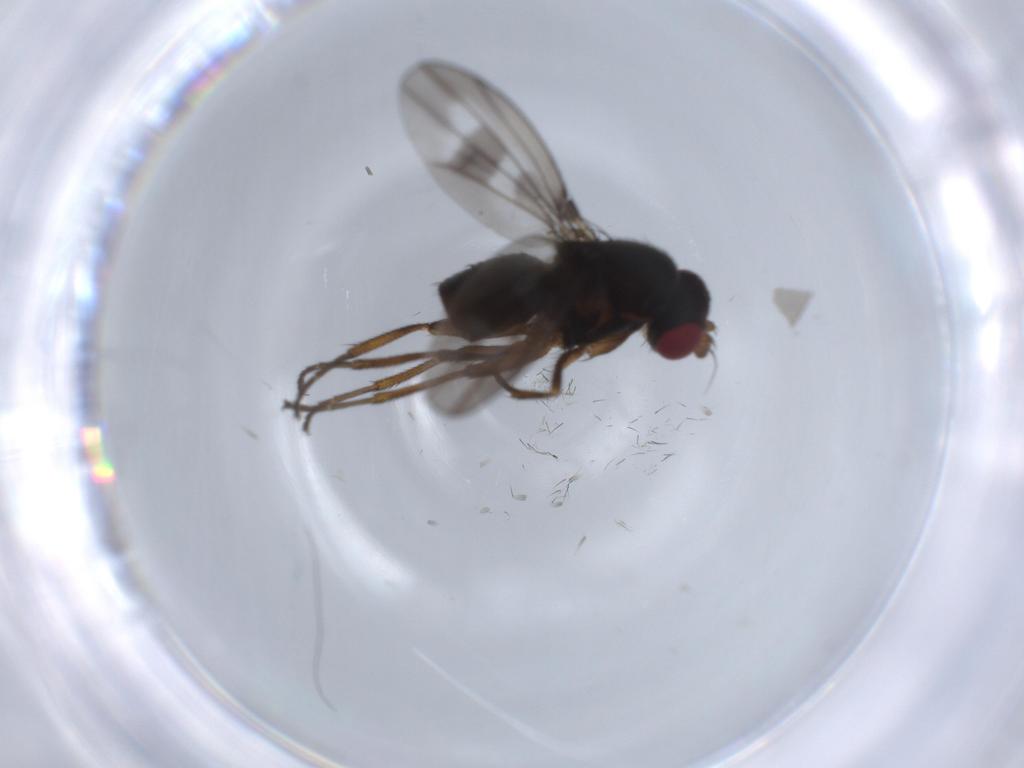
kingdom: Animalia
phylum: Arthropoda
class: Insecta
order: Diptera
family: Diastatidae
